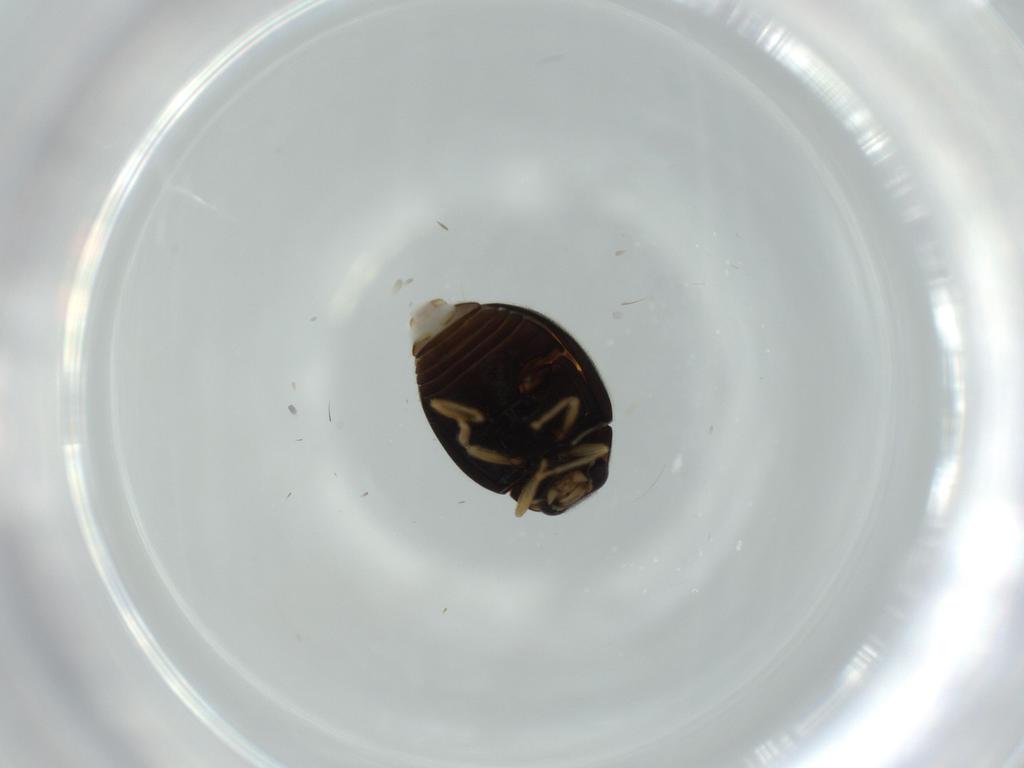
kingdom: Animalia
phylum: Arthropoda
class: Insecta
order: Coleoptera
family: Coccinellidae
